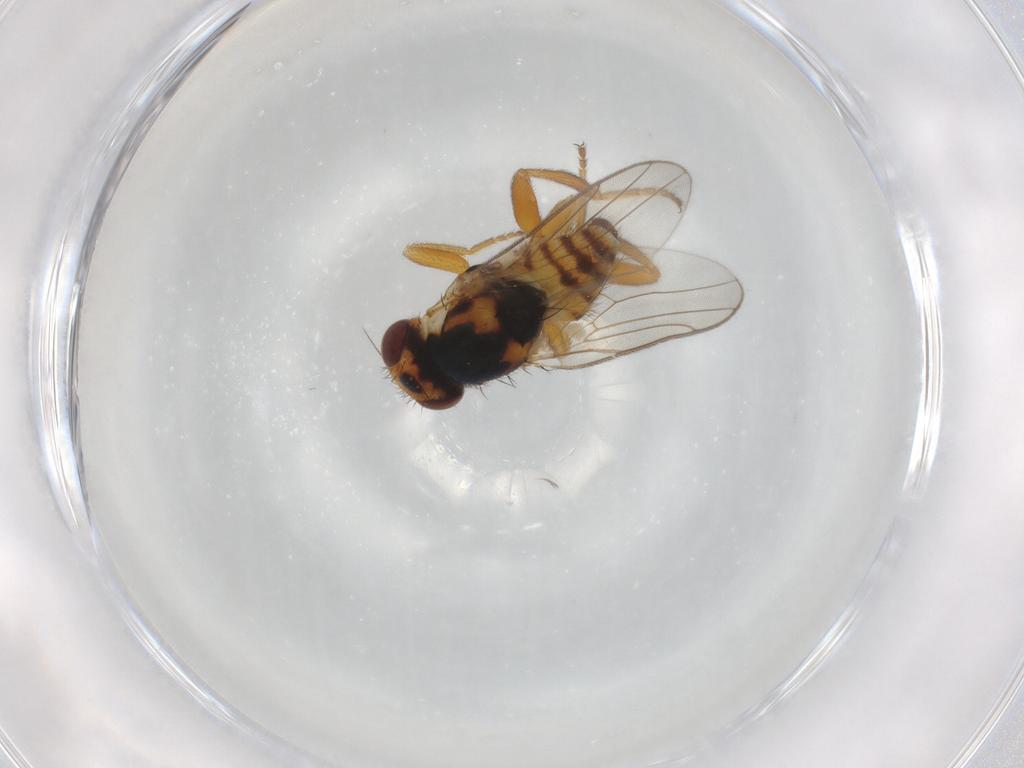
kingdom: Animalia
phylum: Arthropoda
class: Insecta
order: Diptera
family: Chloropidae
